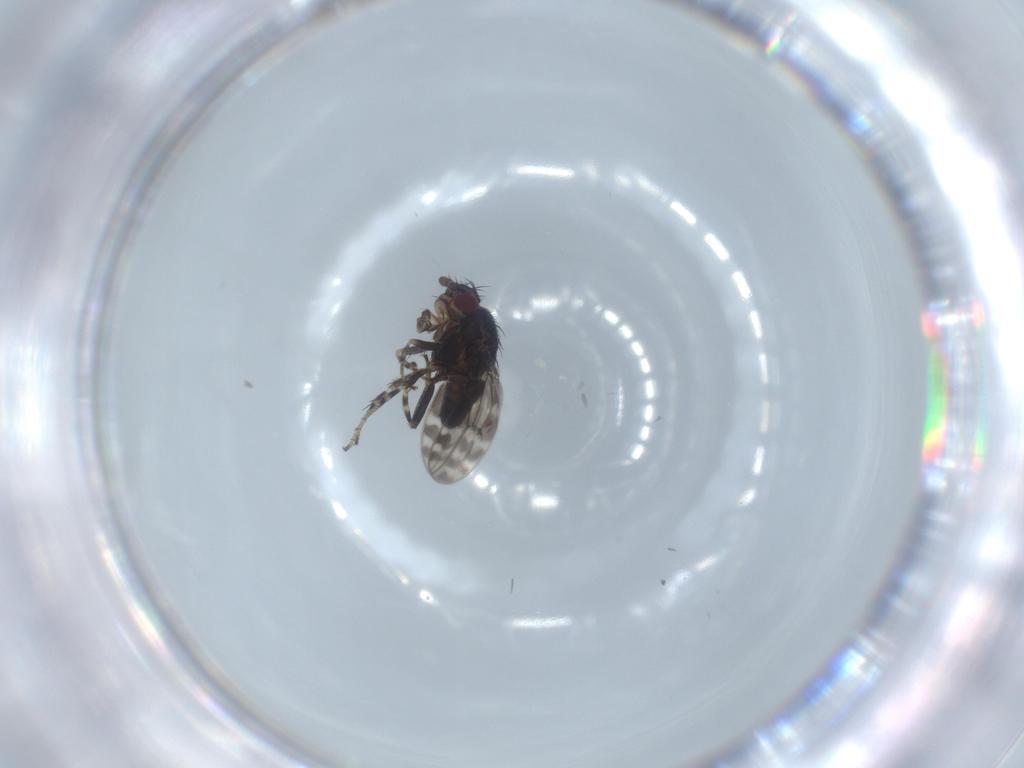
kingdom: Animalia
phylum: Arthropoda
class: Insecta
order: Diptera
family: Sphaeroceridae
